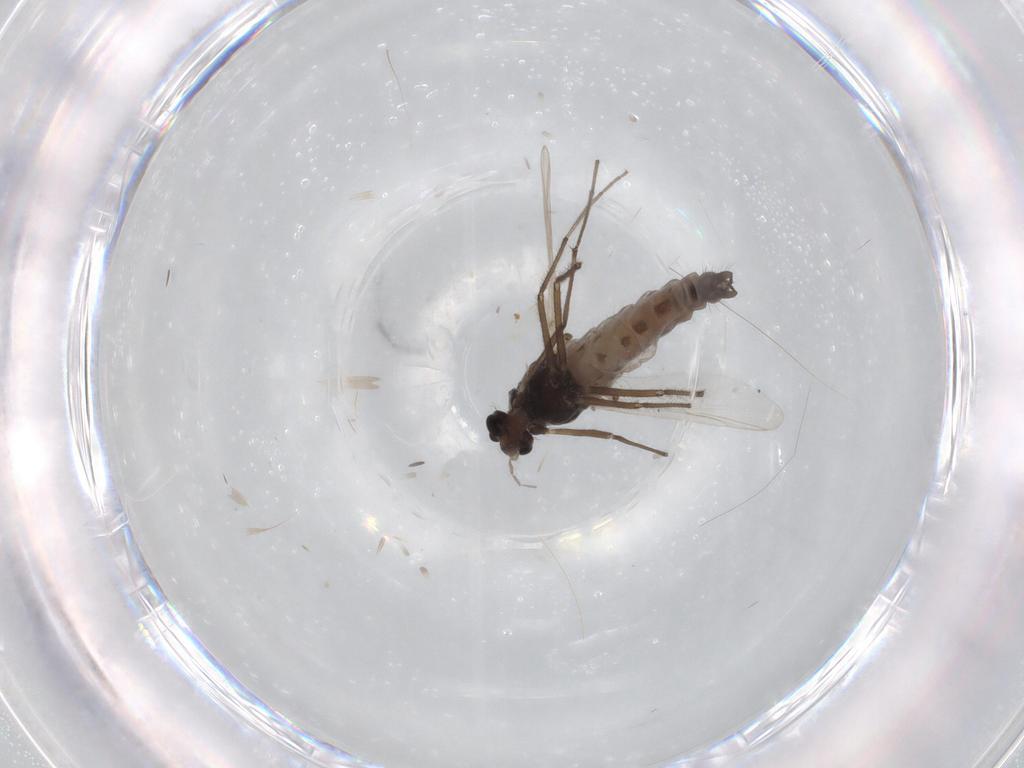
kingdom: Animalia
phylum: Arthropoda
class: Insecta
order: Diptera
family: Chironomidae
